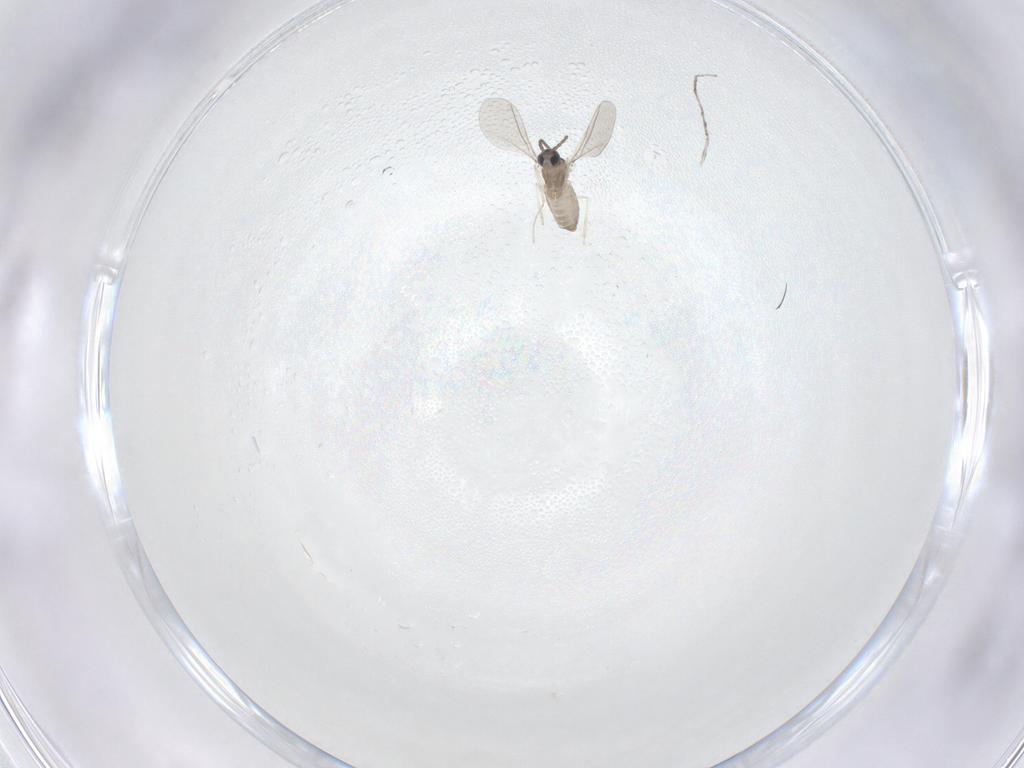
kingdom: Animalia
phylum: Arthropoda
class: Insecta
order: Diptera
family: Cecidomyiidae
